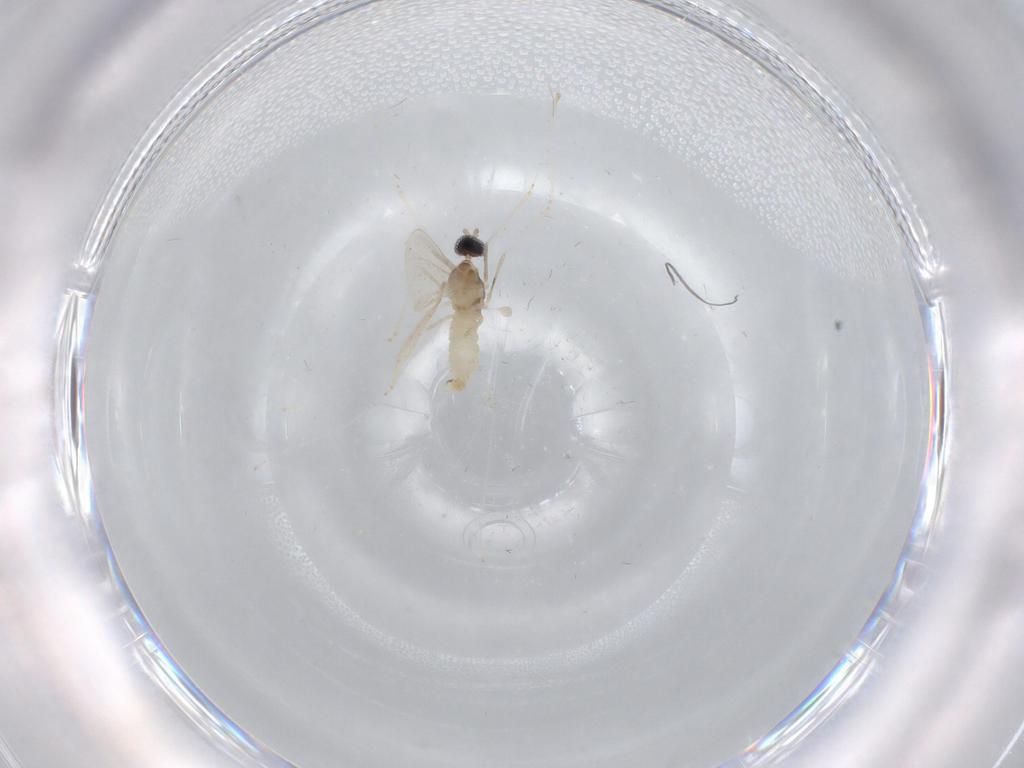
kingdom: Animalia
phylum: Arthropoda
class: Insecta
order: Diptera
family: Cecidomyiidae
